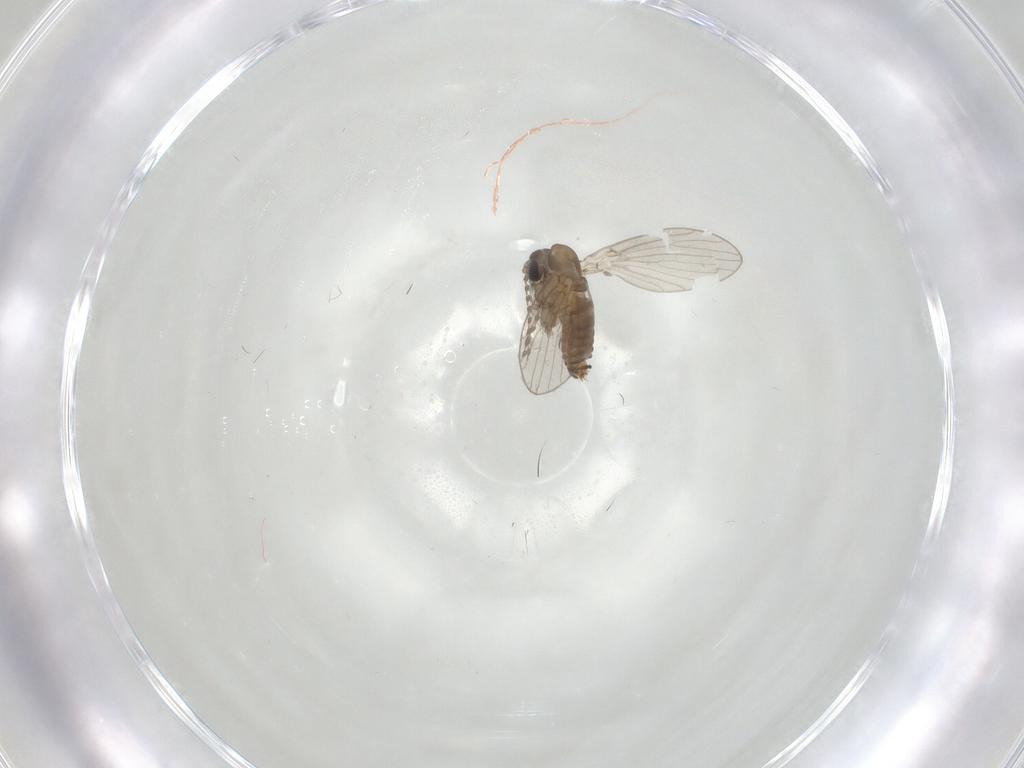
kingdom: Animalia
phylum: Arthropoda
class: Insecta
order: Diptera
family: Psychodidae
